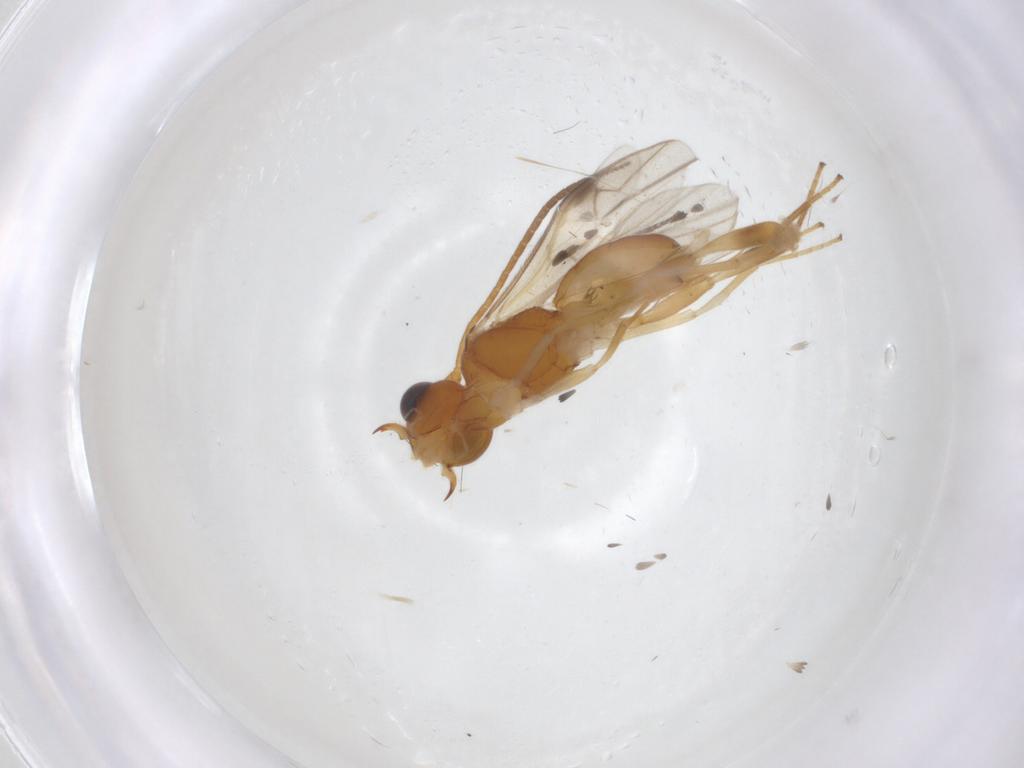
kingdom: Animalia
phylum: Arthropoda
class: Insecta
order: Hymenoptera
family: Braconidae
